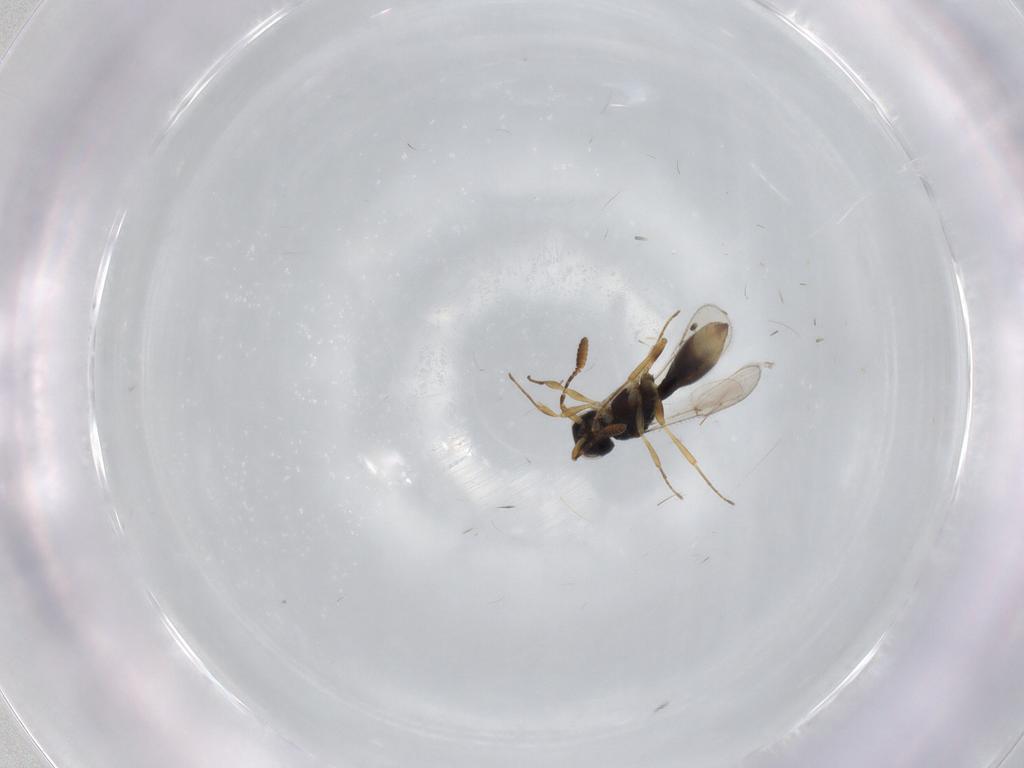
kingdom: Animalia
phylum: Arthropoda
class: Insecta
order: Hymenoptera
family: Scelionidae
